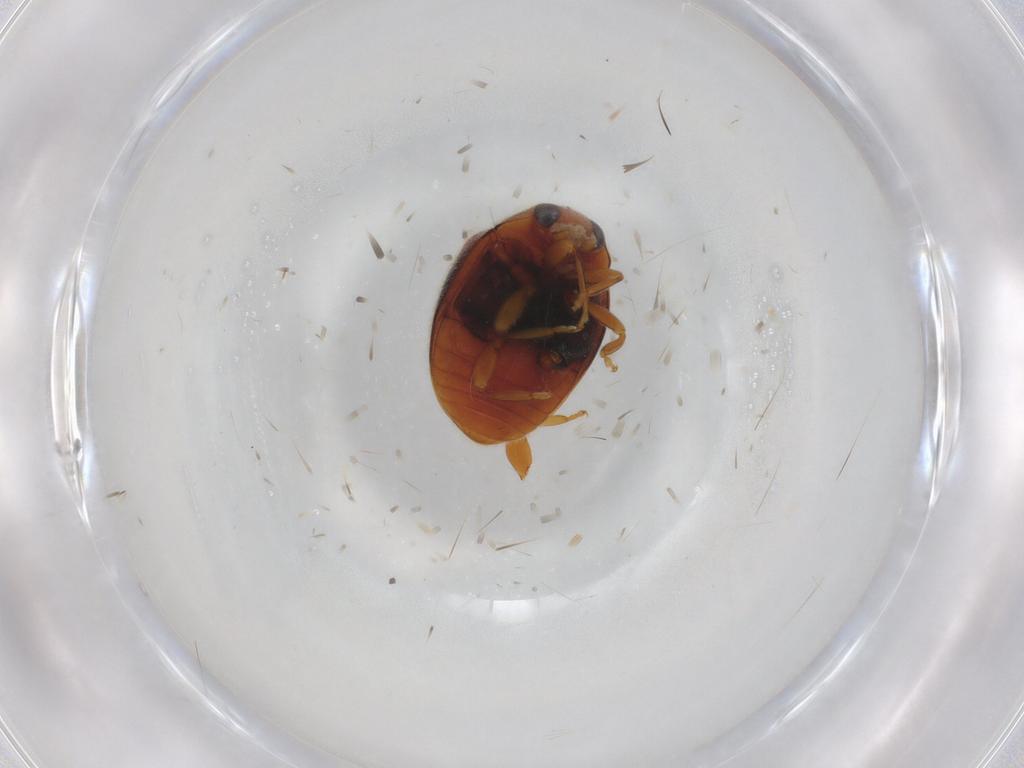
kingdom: Animalia
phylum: Arthropoda
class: Insecta
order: Coleoptera
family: Coccinellidae
